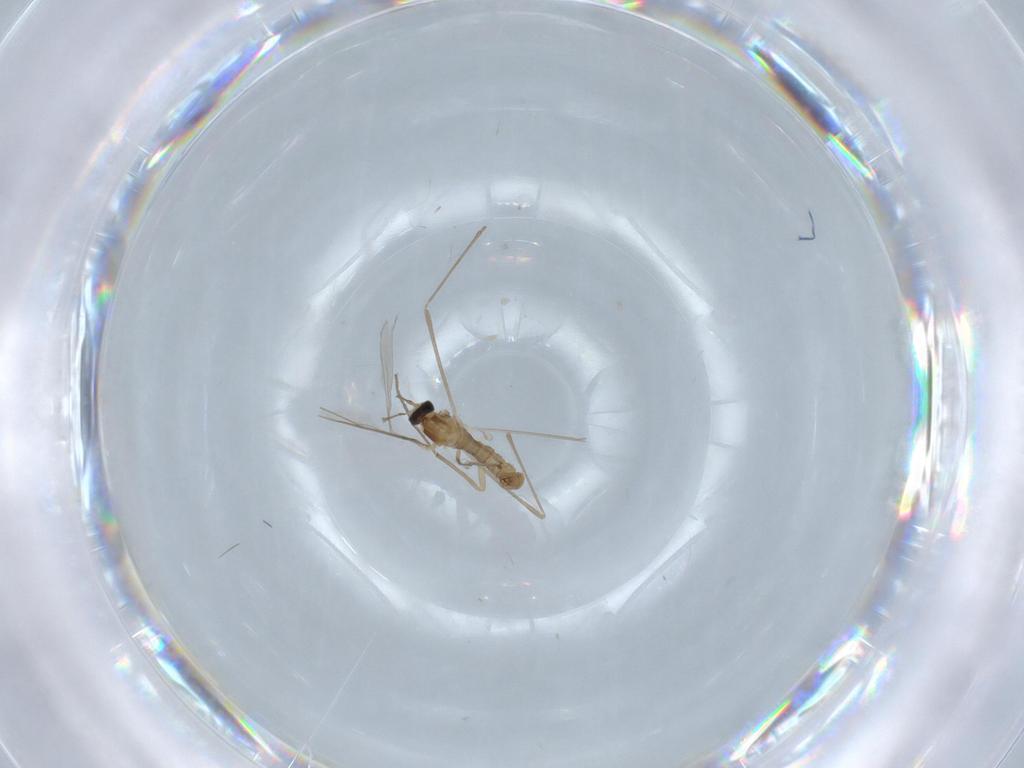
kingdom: Animalia
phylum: Arthropoda
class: Insecta
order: Diptera
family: Cecidomyiidae
